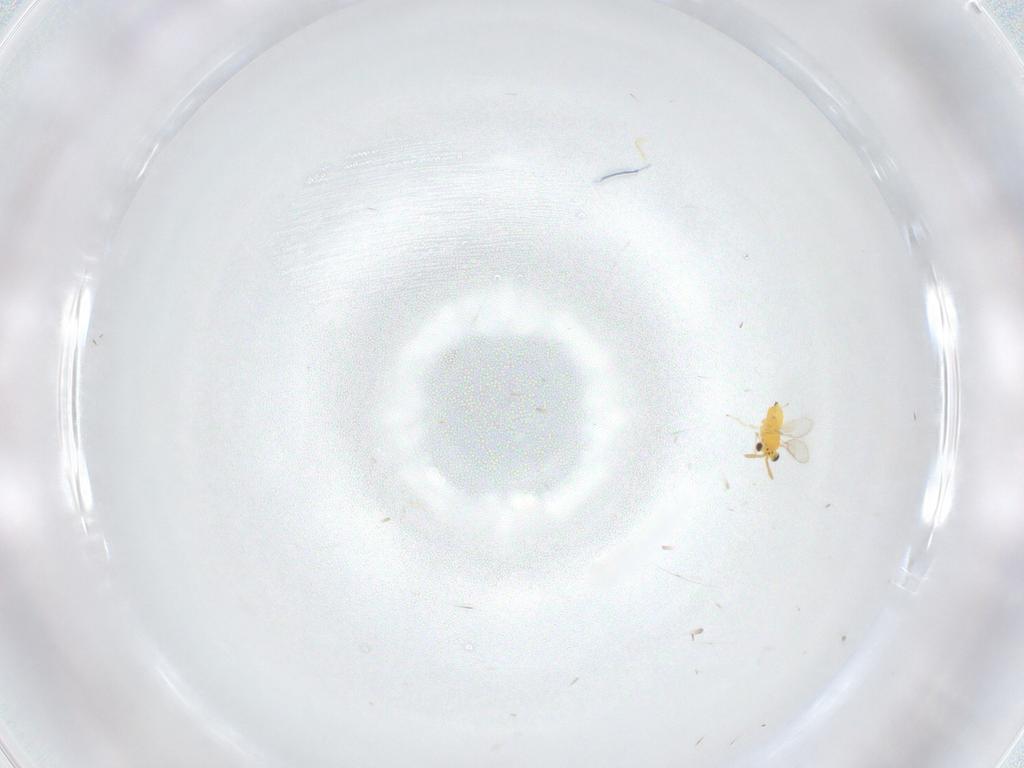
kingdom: Animalia
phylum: Arthropoda
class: Insecta
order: Hymenoptera
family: Aphelinidae
